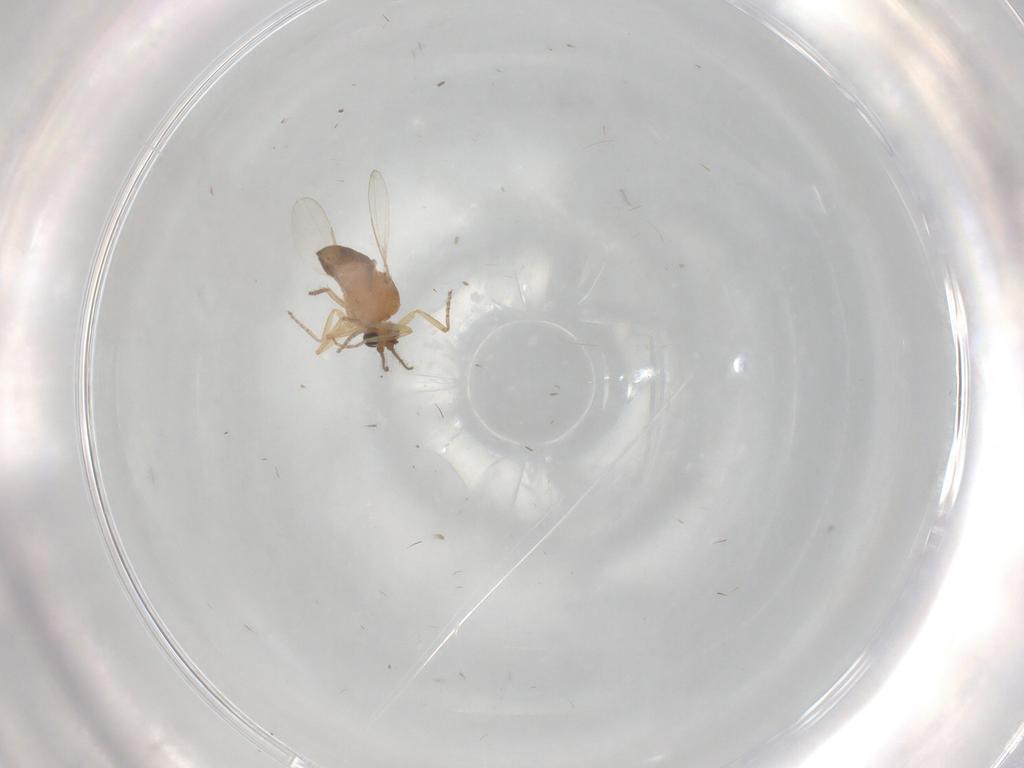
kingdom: Animalia
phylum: Arthropoda
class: Insecta
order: Diptera
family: Ceratopogonidae
